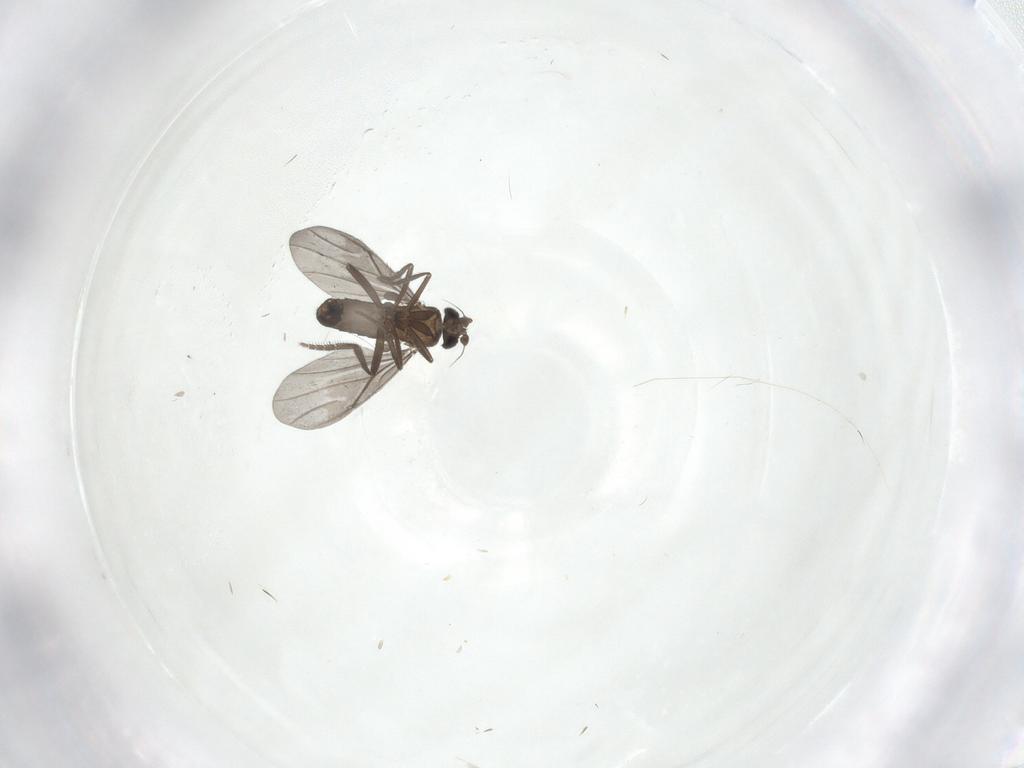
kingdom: Animalia
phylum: Arthropoda
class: Insecta
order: Diptera
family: Phoridae
